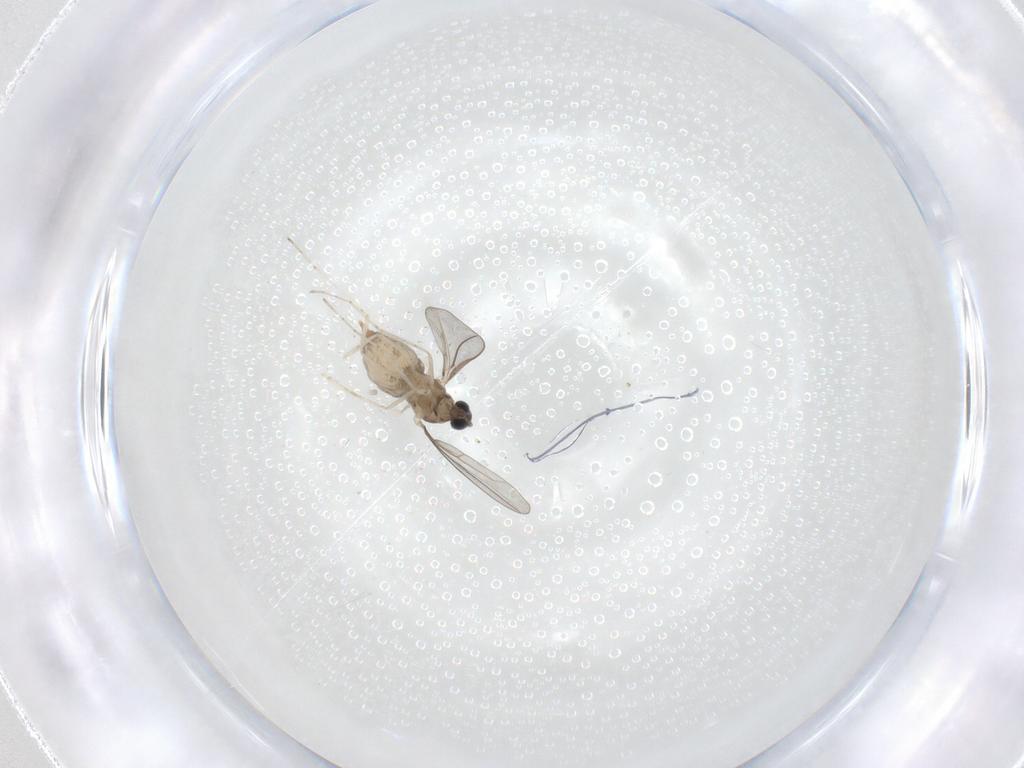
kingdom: Animalia
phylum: Arthropoda
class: Insecta
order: Diptera
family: Cecidomyiidae
